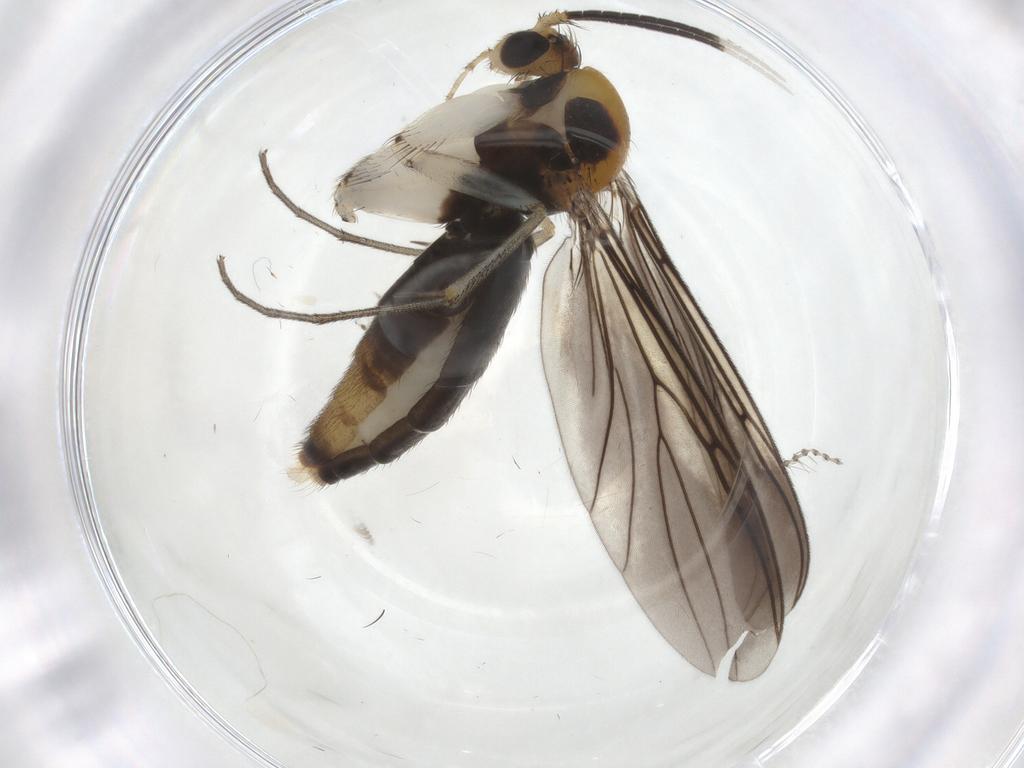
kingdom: Animalia
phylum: Arthropoda
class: Insecta
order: Diptera
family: Mycetophilidae
